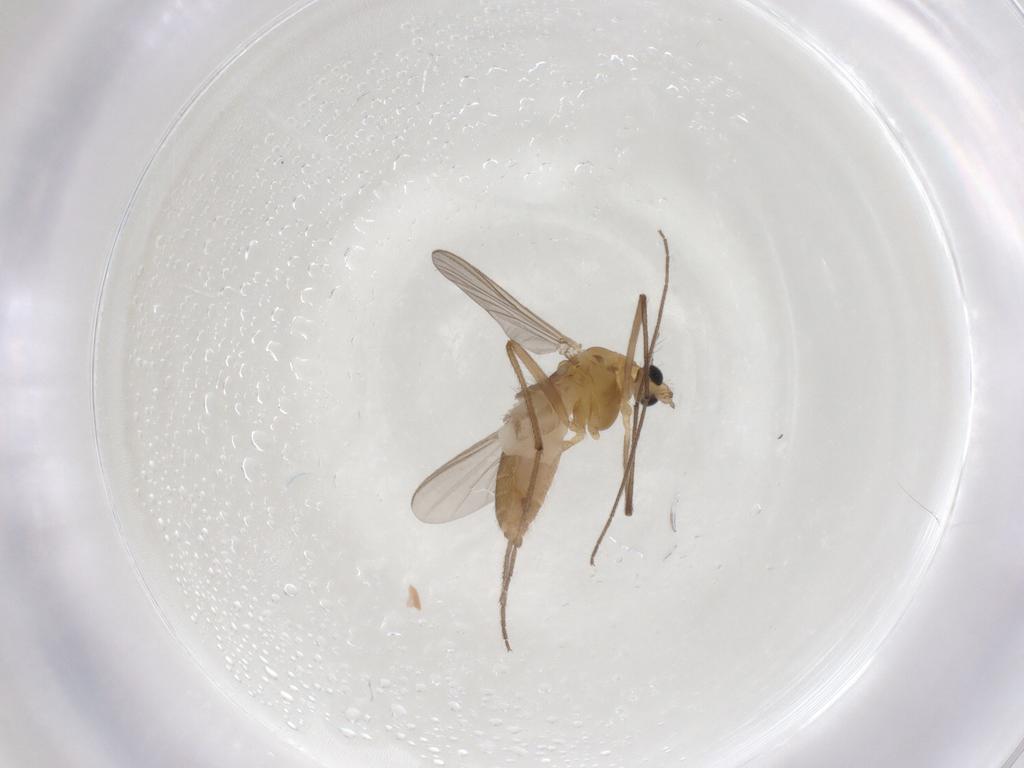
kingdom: Animalia
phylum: Arthropoda
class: Insecta
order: Diptera
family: Chironomidae
